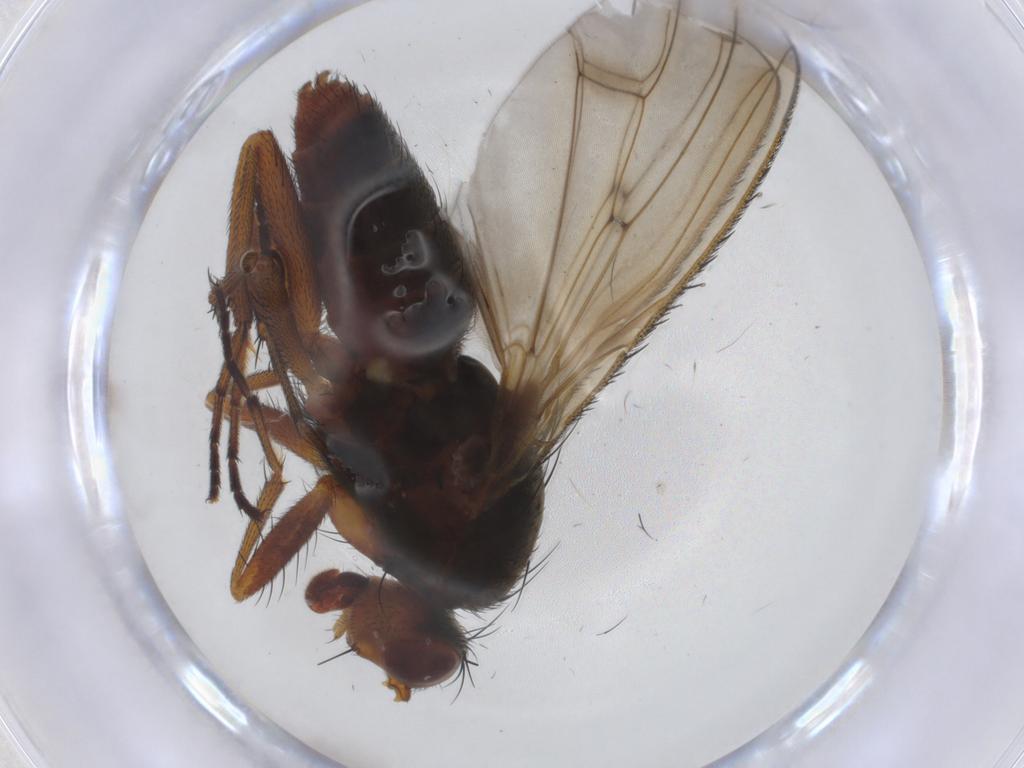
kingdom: Animalia
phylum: Arthropoda
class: Insecta
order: Diptera
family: Heleomyzidae
